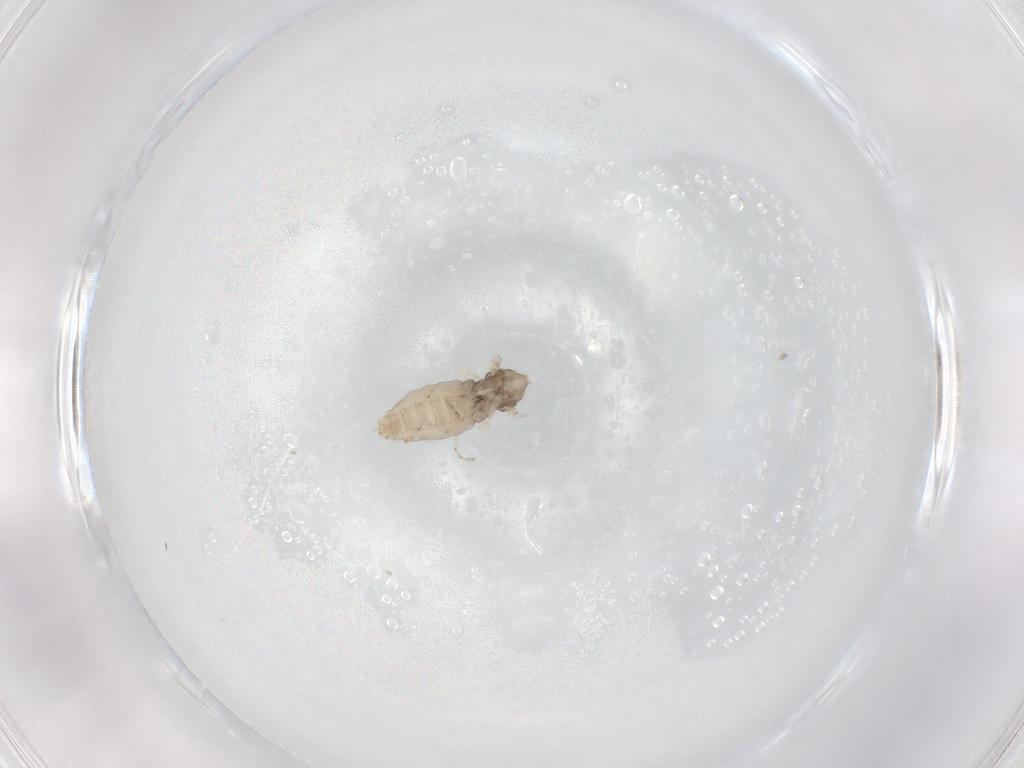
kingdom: Animalia
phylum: Arthropoda
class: Insecta
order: Diptera
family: Cecidomyiidae
